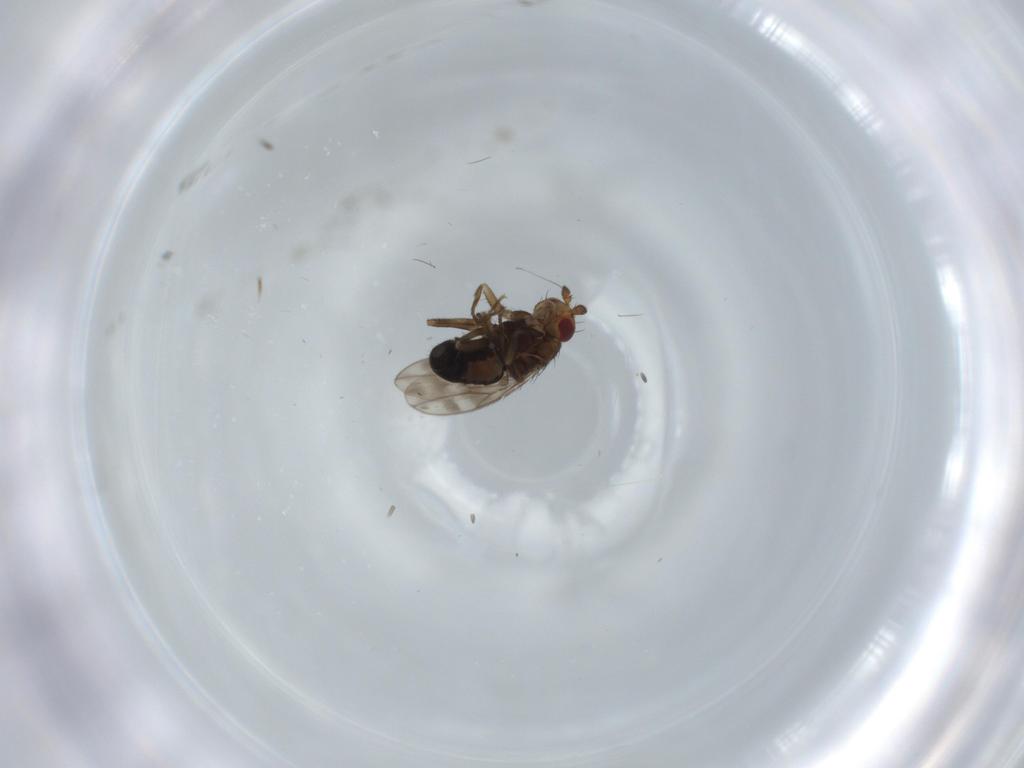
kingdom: Animalia
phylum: Arthropoda
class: Insecta
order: Diptera
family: Sphaeroceridae
